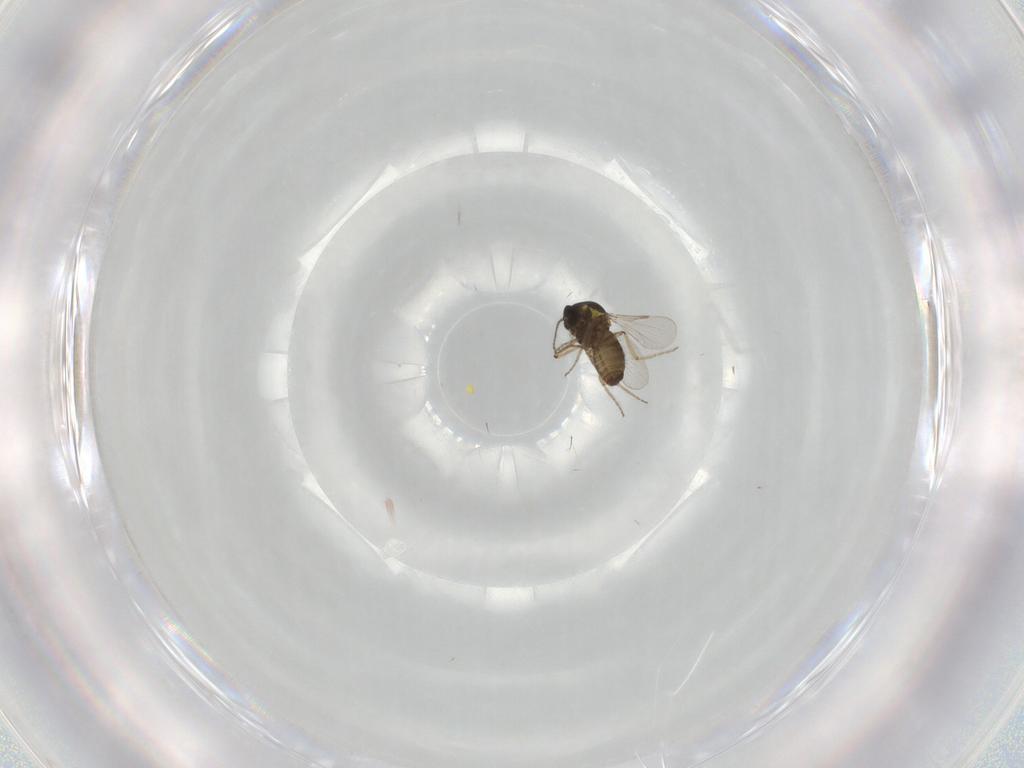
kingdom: Animalia
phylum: Arthropoda
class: Insecta
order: Diptera
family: Ceratopogonidae
